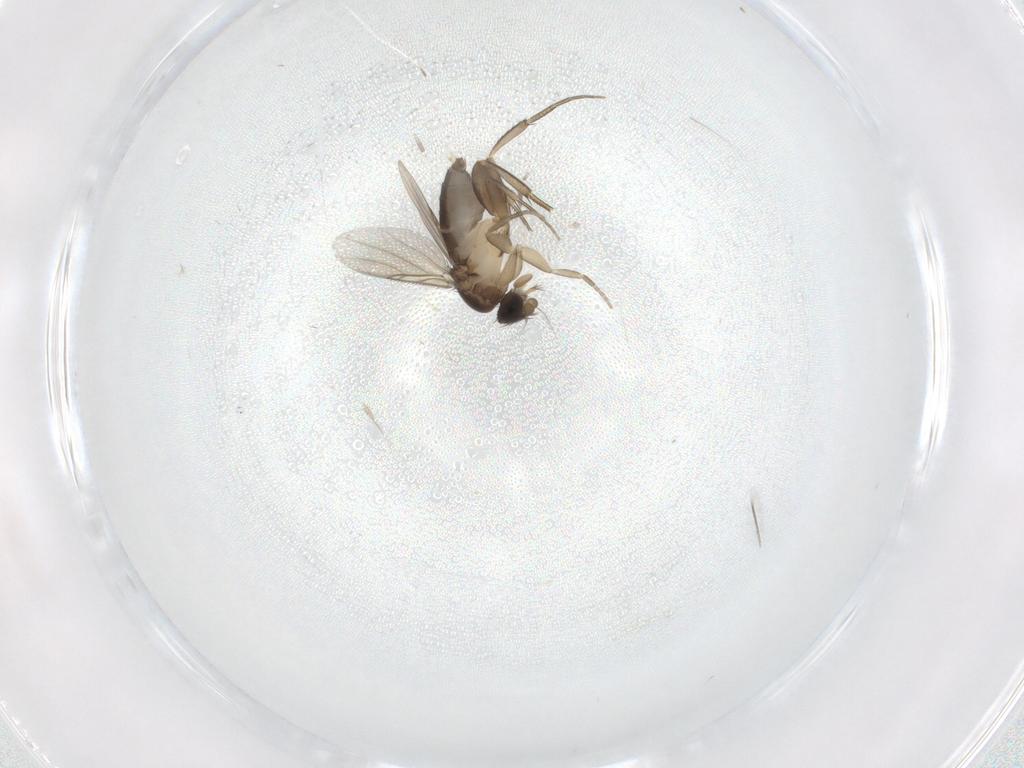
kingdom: Animalia
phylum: Arthropoda
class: Insecta
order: Diptera
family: Phoridae
